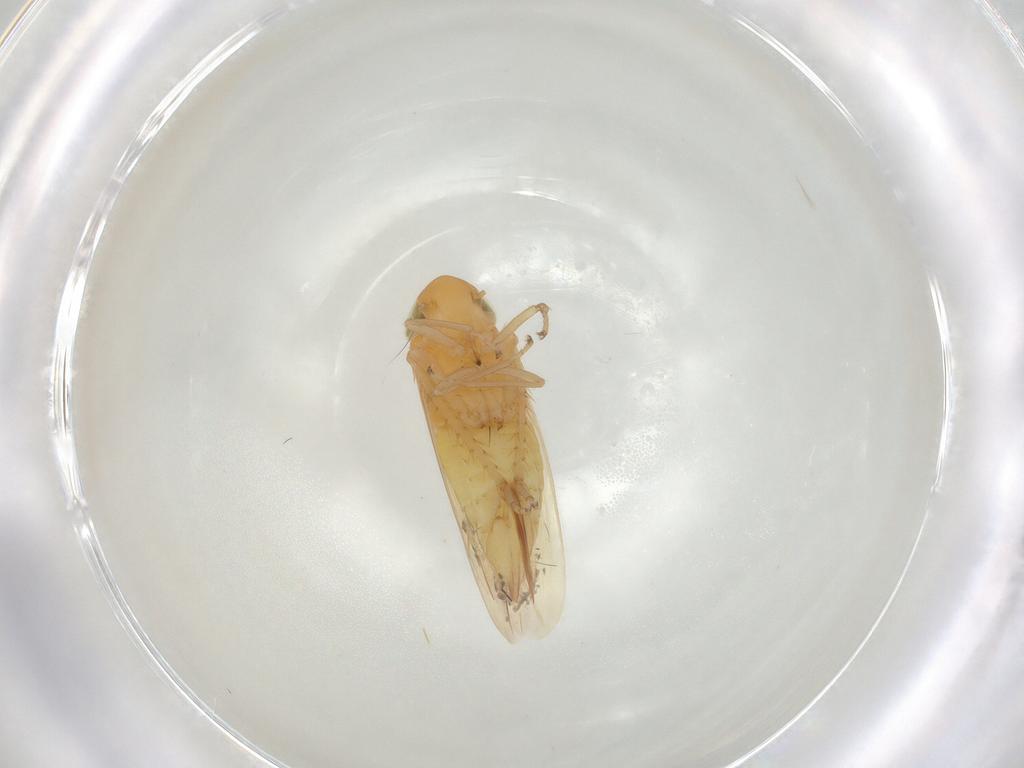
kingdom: Animalia
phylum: Arthropoda
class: Insecta
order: Hemiptera
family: Cicadellidae
